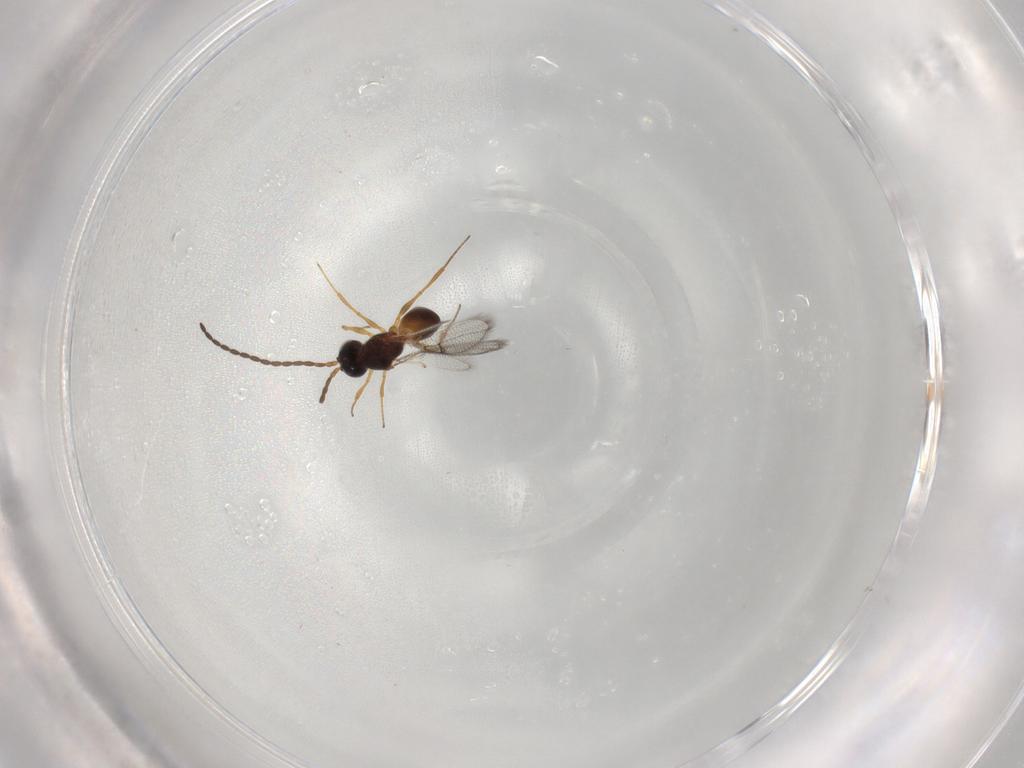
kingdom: Animalia
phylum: Arthropoda
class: Insecta
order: Hymenoptera
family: Figitidae
